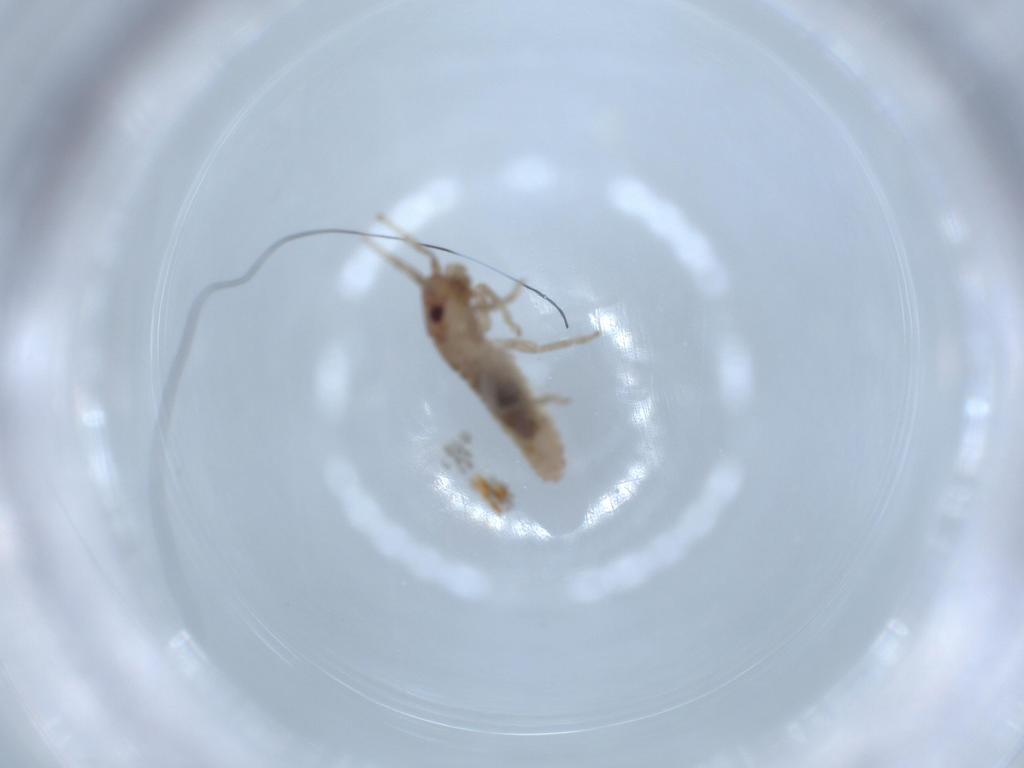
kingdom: Animalia
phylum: Arthropoda
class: Insecta
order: Orthoptera
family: Mogoplistidae
